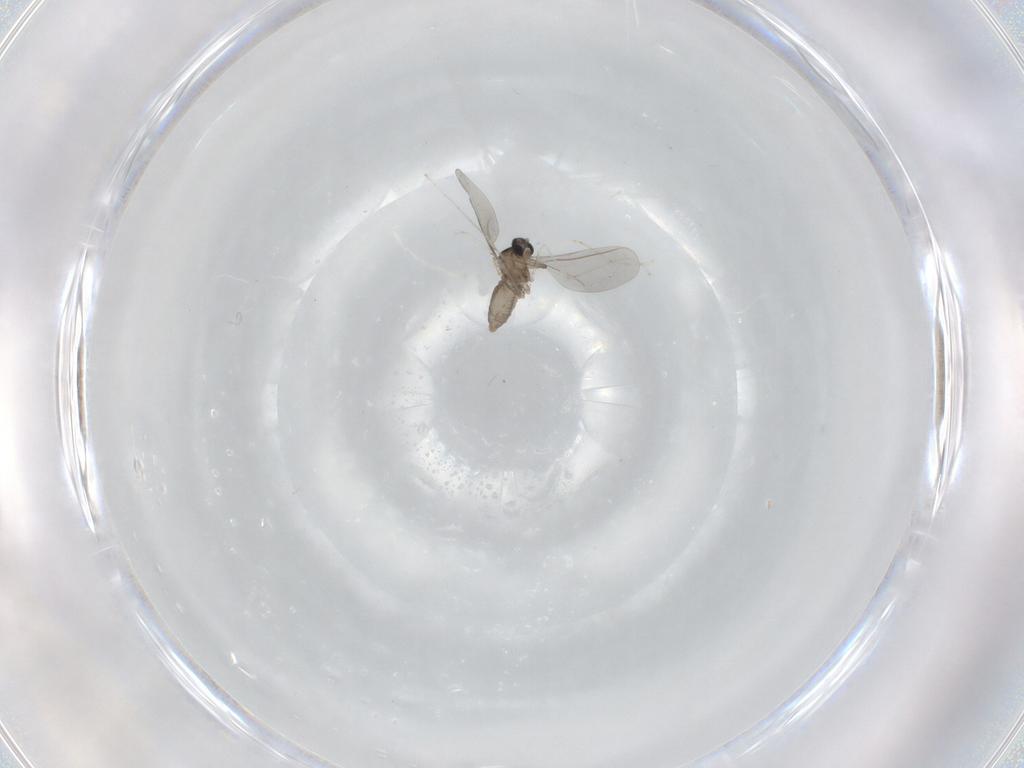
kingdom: Animalia
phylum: Arthropoda
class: Insecta
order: Diptera
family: Cecidomyiidae
